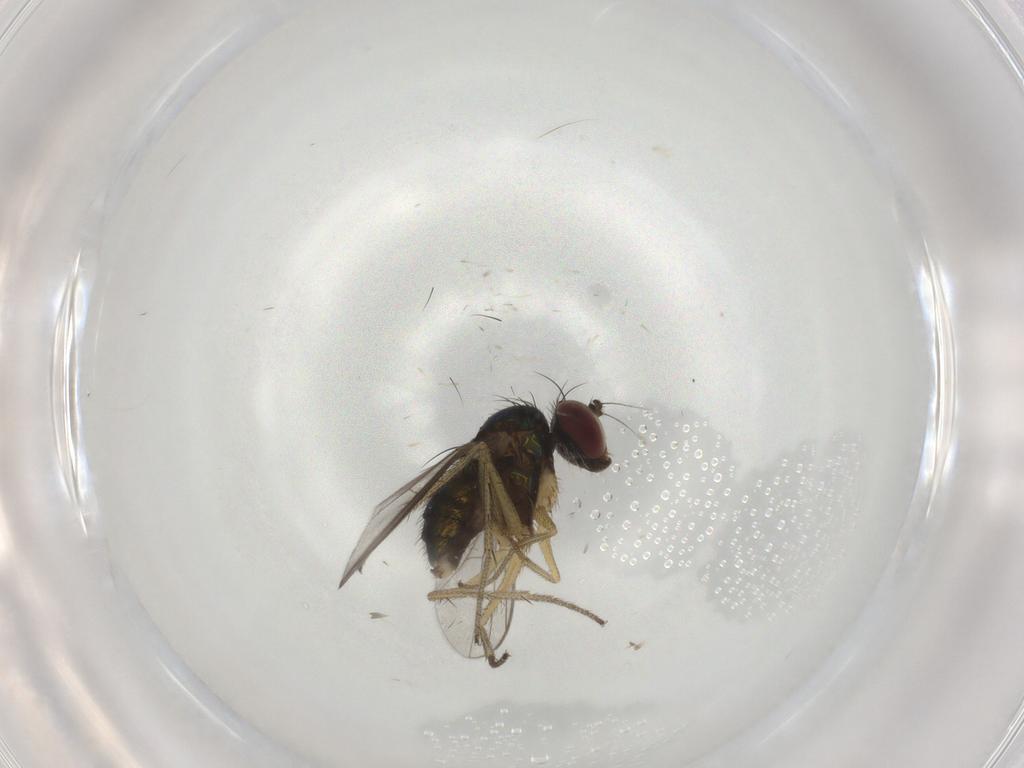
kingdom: Animalia
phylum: Arthropoda
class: Insecta
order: Diptera
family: Dolichopodidae
